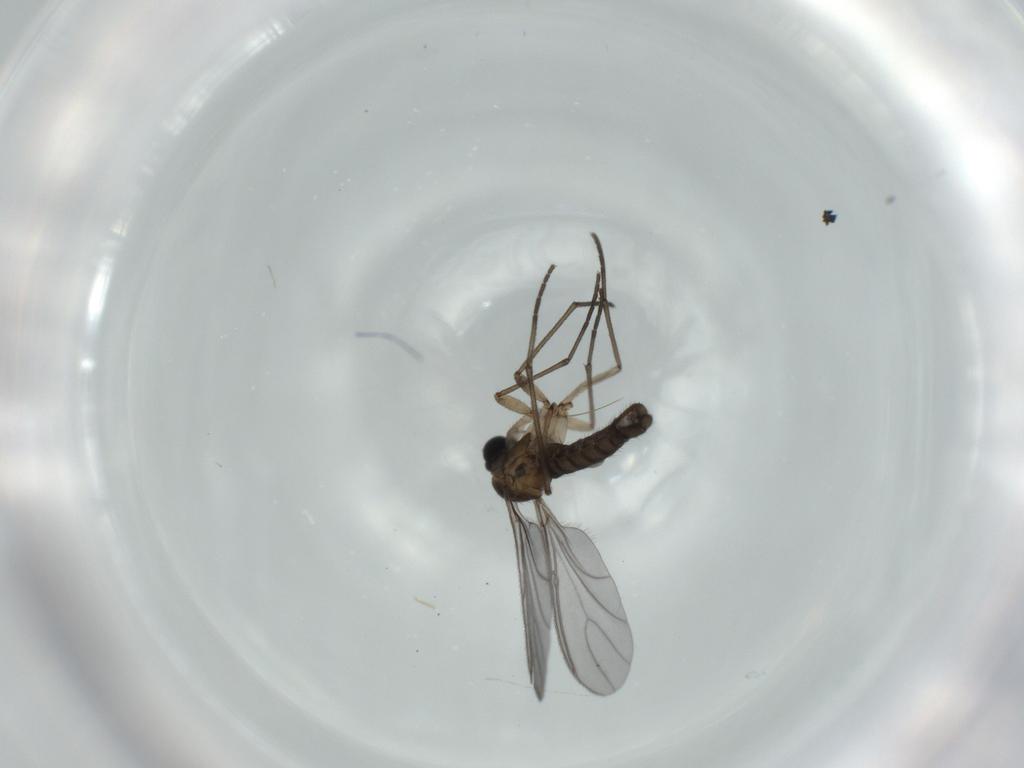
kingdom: Animalia
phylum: Arthropoda
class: Insecta
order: Diptera
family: Sciaridae
